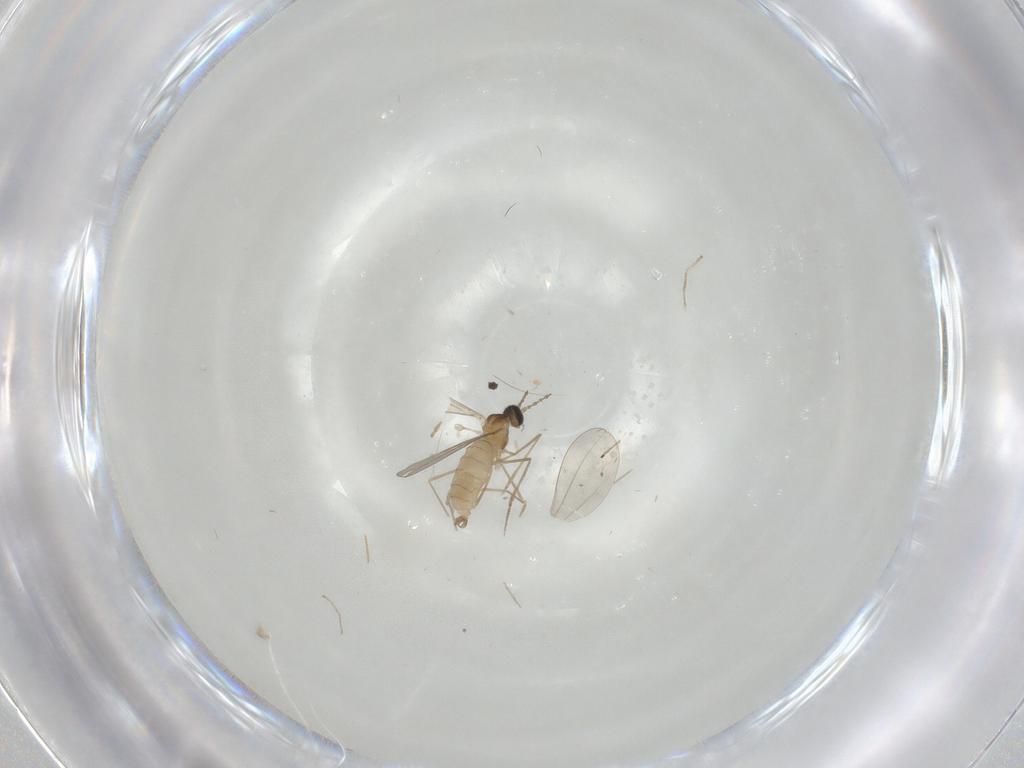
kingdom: Animalia
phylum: Arthropoda
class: Insecta
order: Diptera
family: Cecidomyiidae
